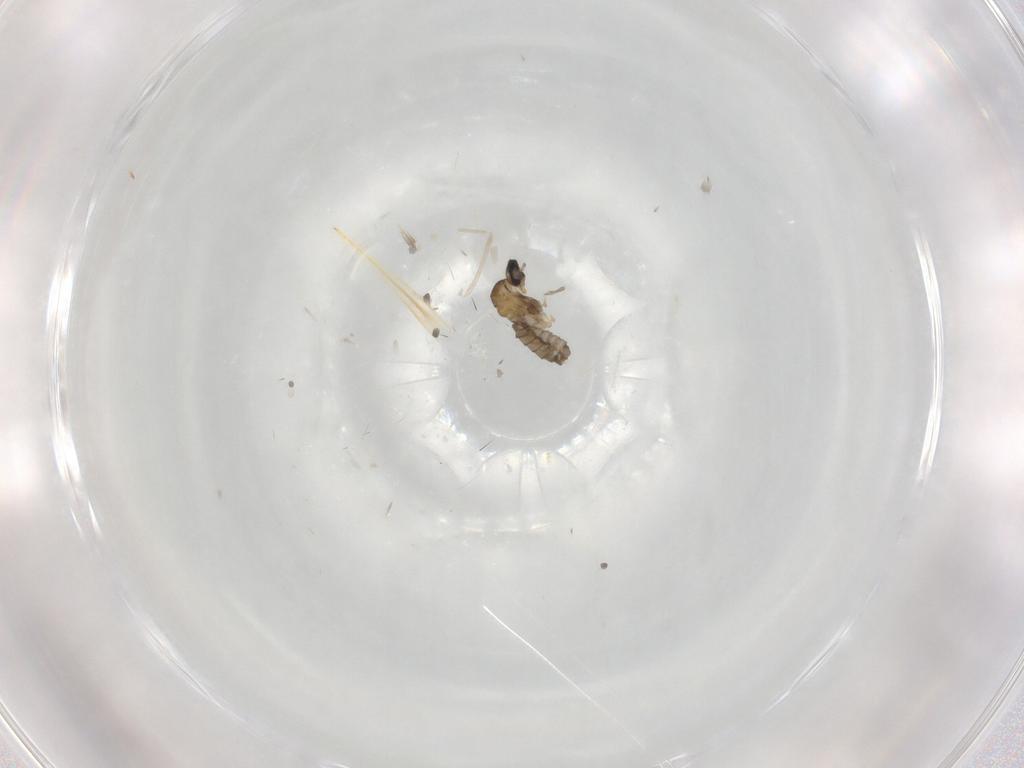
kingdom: Animalia
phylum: Arthropoda
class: Insecta
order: Diptera
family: Cecidomyiidae
